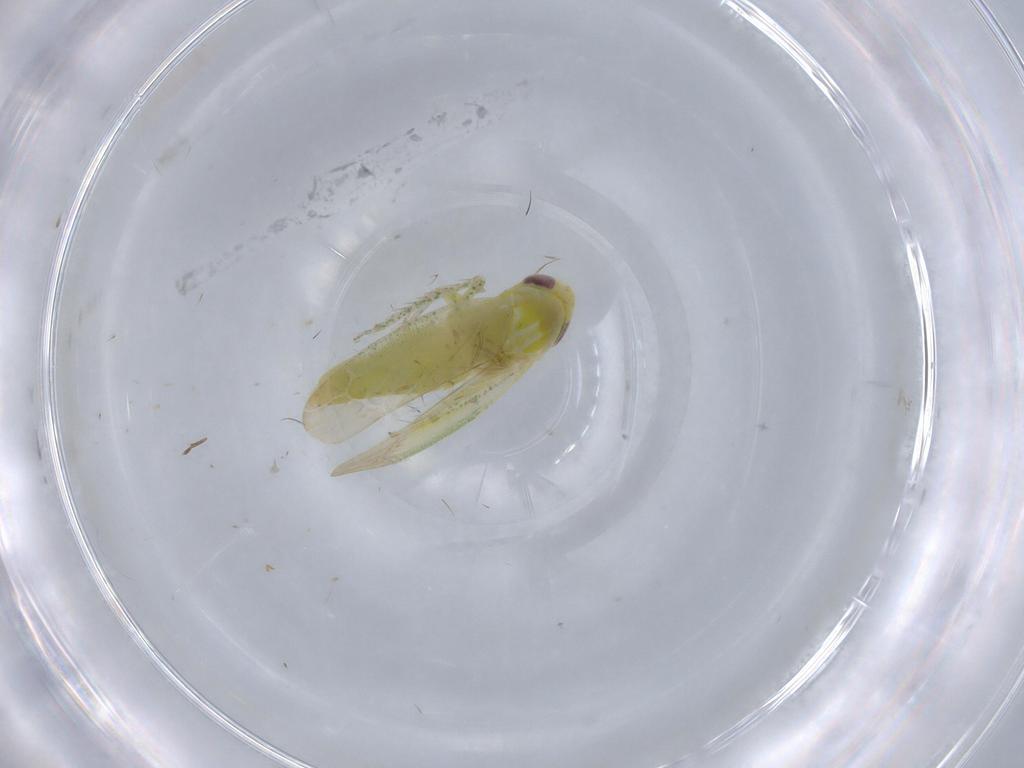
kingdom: Animalia
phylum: Arthropoda
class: Insecta
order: Hemiptera
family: Cicadellidae
